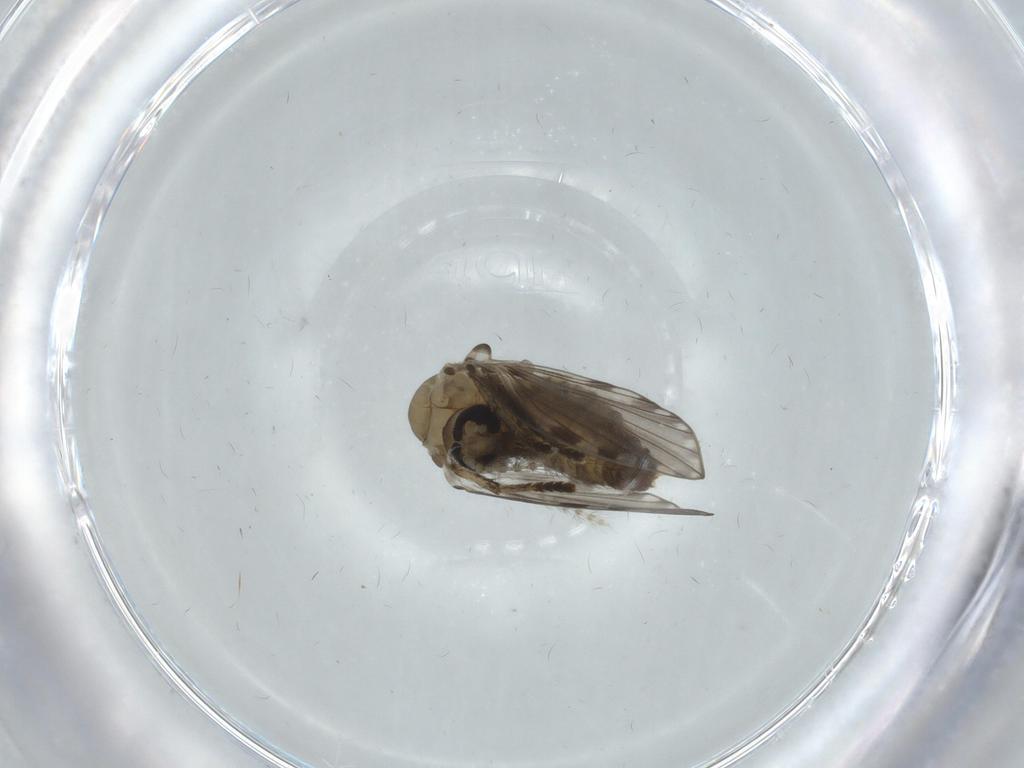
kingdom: Animalia
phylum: Arthropoda
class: Insecta
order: Diptera
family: Psychodidae
